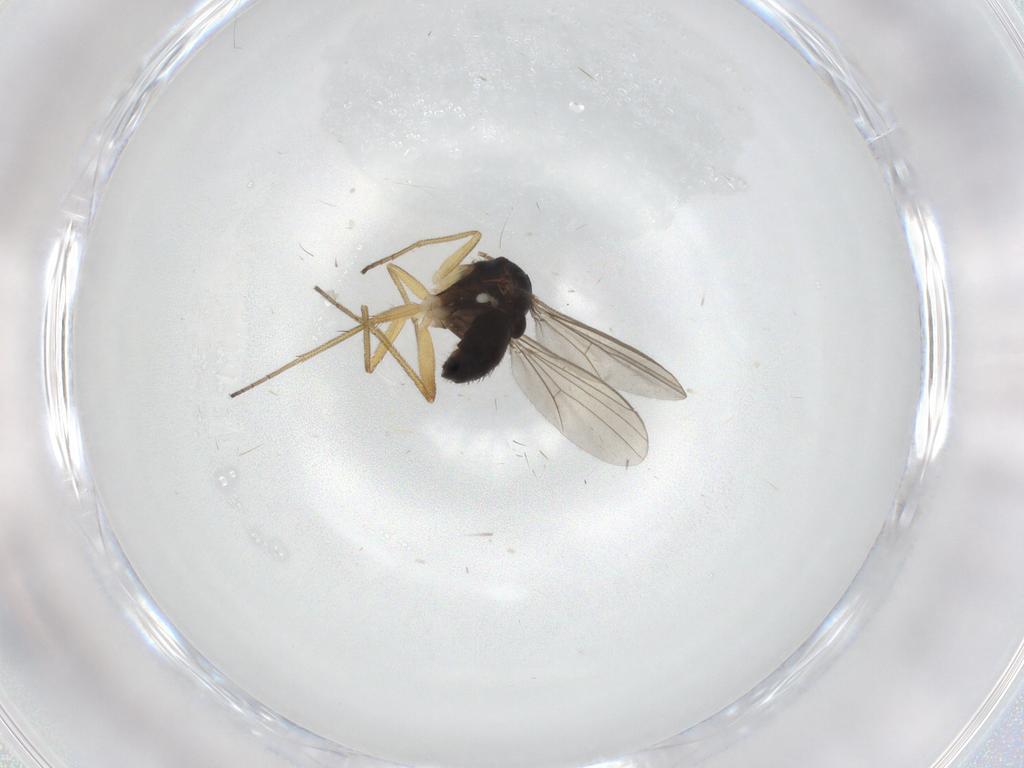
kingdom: Animalia
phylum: Arthropoda
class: Insecta
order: Diptera
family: Dolichopodidae
